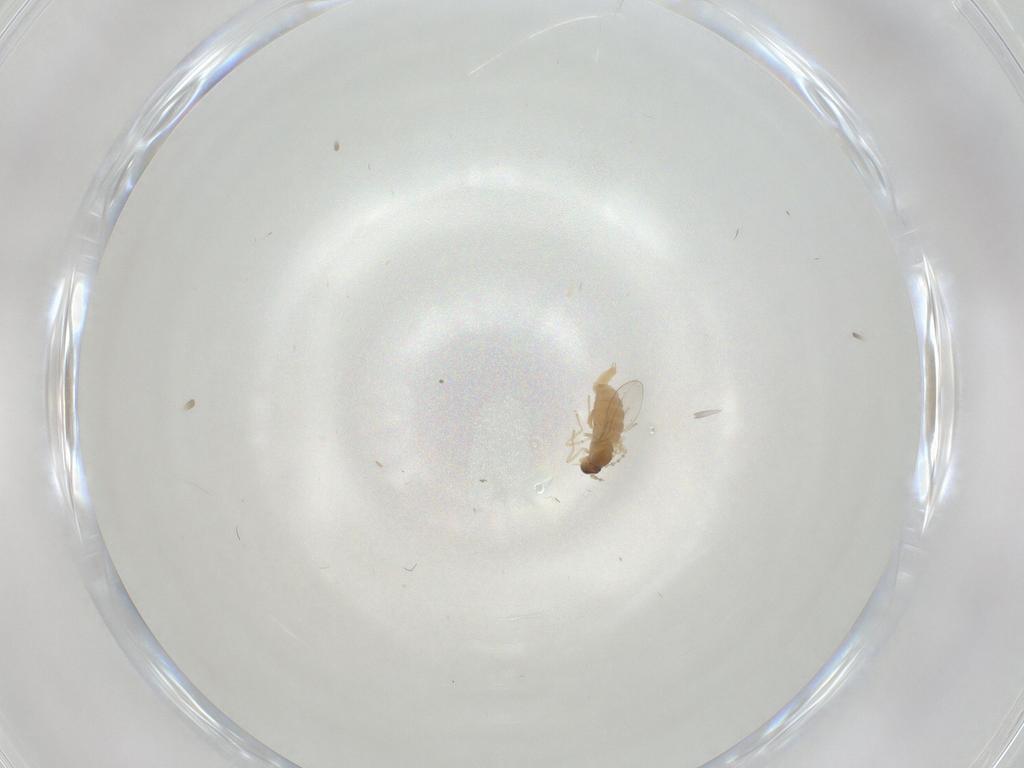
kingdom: Animalia
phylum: Arthropoda
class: Insecta
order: Diptera
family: Cecidomyiidae
